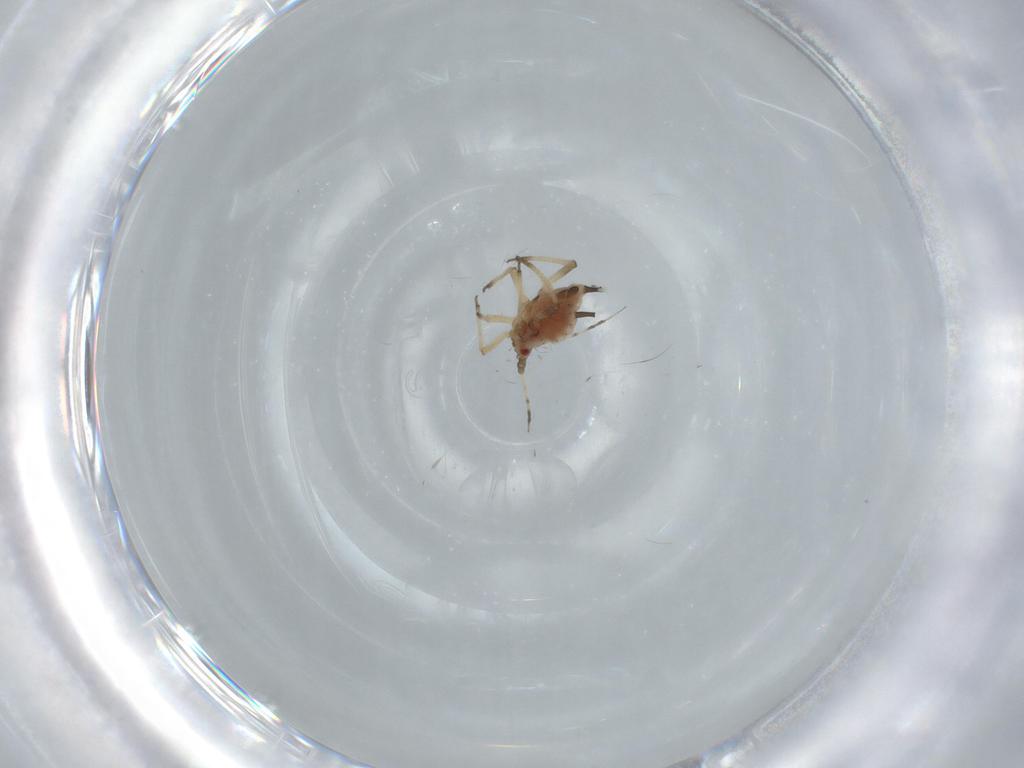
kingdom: Animalia
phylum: Arthropoda
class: Insecta
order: Hemiptera
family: Aphididae
